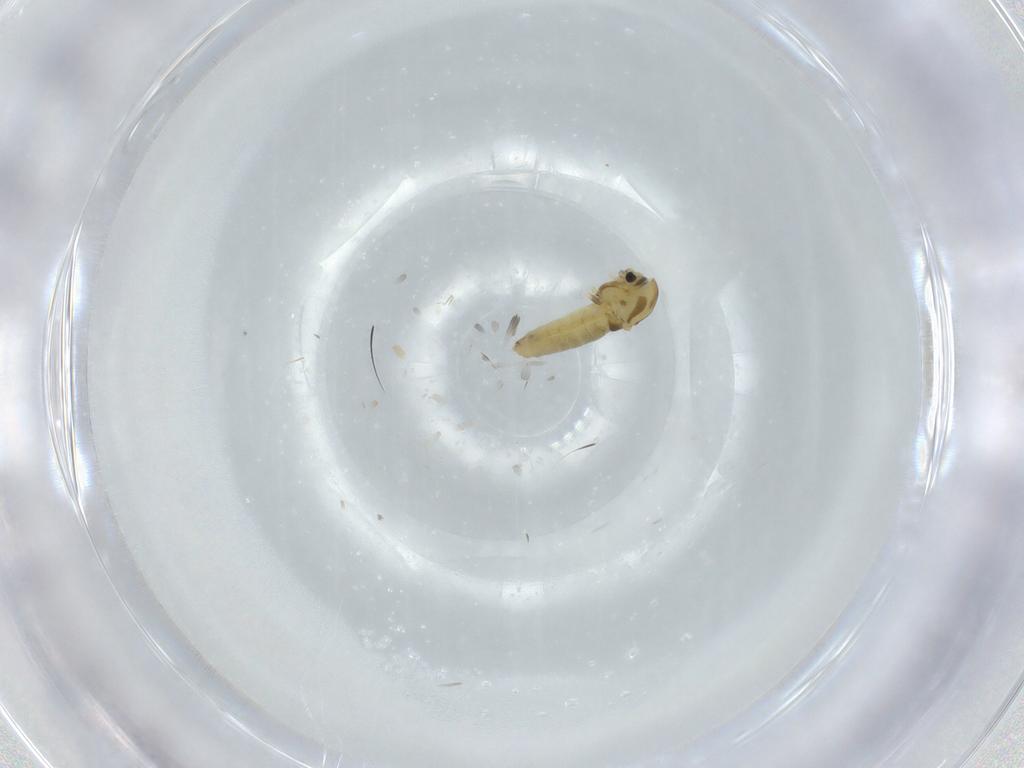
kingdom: Animalia
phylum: Arthropoda
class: Insecta
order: Diptera
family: Chironomidae
